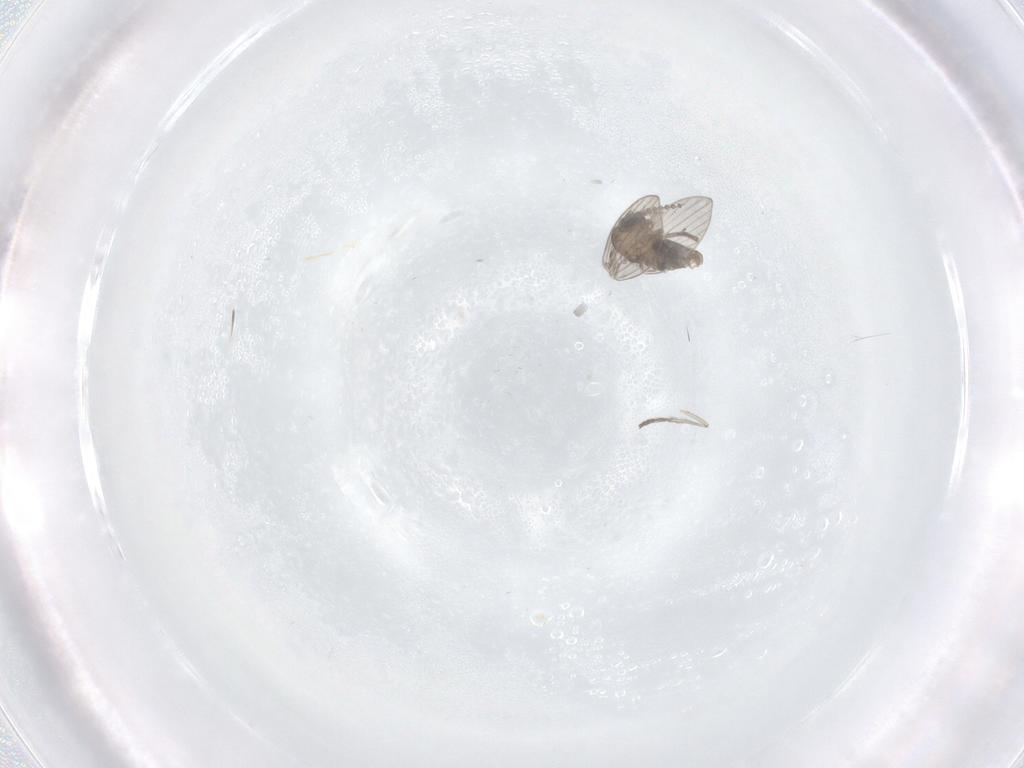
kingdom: Animalia
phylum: Arthropoda
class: Insecta
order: Diptera
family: Psychodidae
